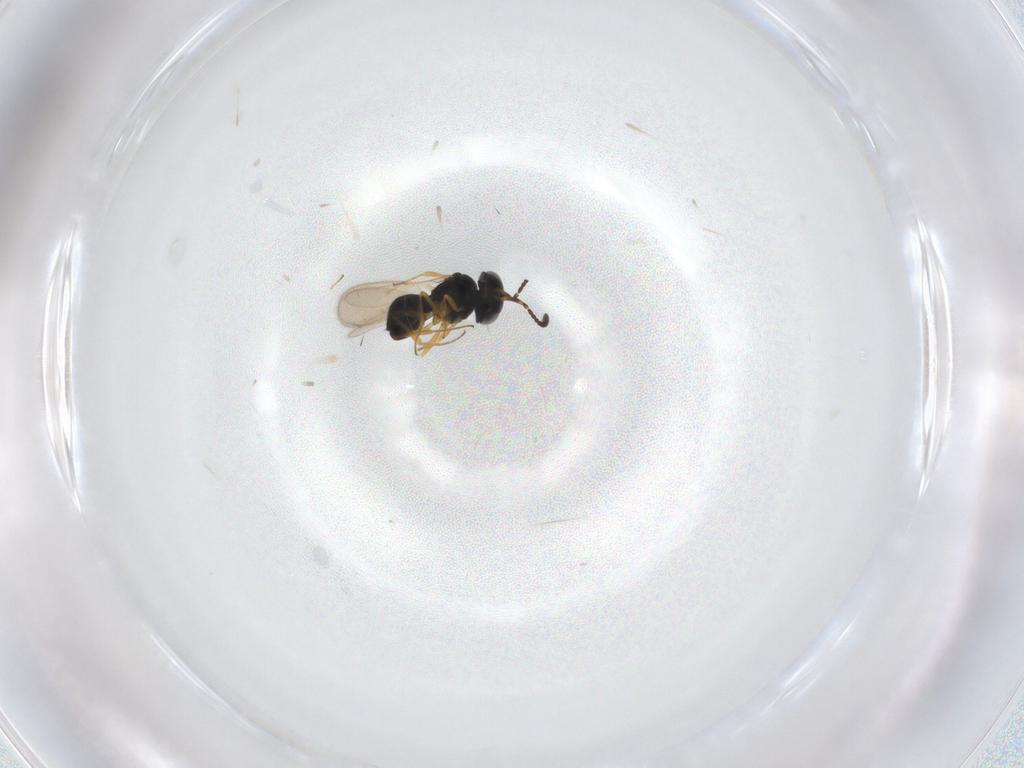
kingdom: Animalia
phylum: Arthropoda
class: Insecta
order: Hymenoptera
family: Scelionidae
